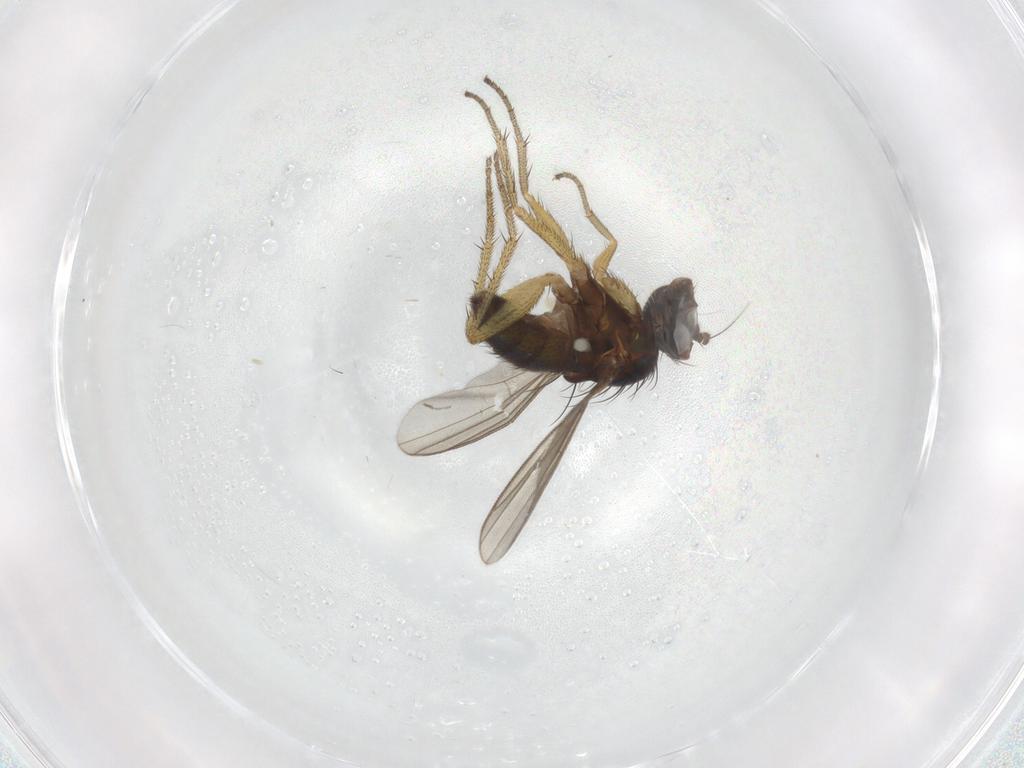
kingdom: Animalia
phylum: Arthropoda
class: Insecta
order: Diptera
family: Dolichopodidae
